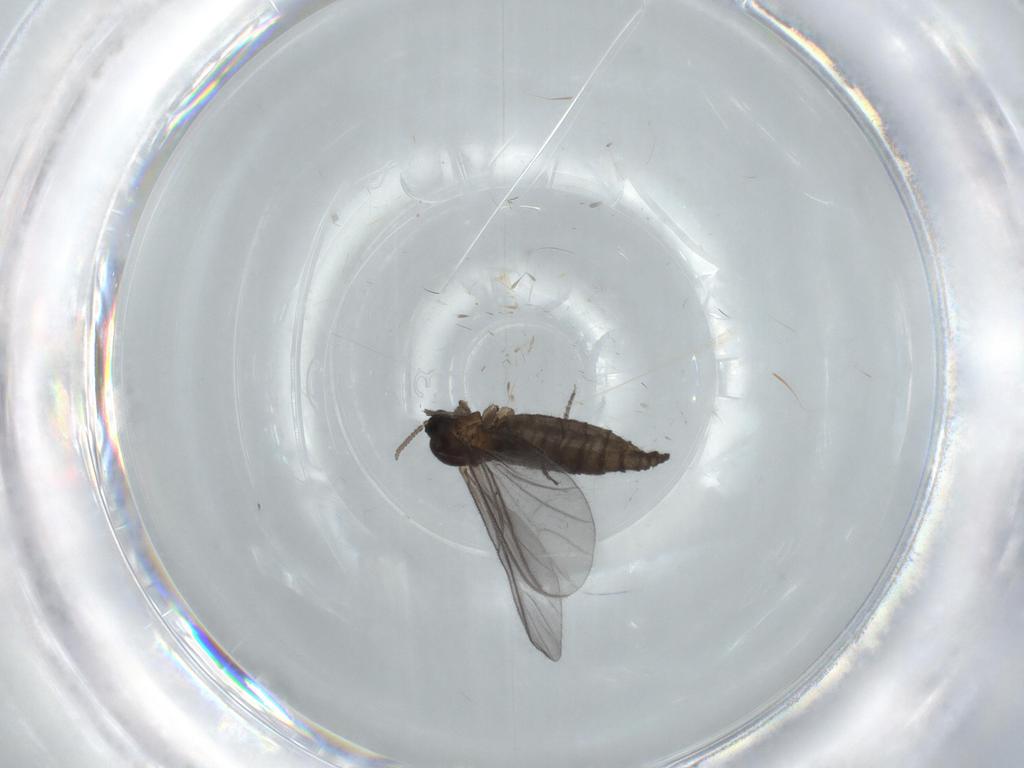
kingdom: Animalia
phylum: Arthropoda
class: Insecta
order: Diptera
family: Sciaridae
